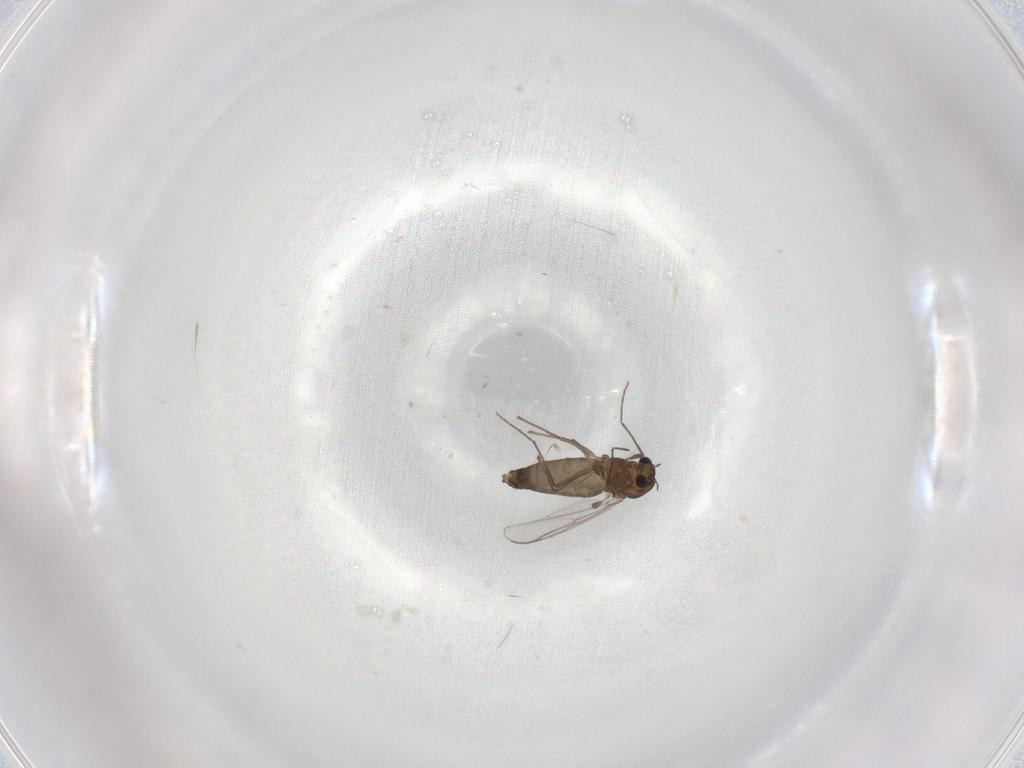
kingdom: Animalia
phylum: Arthropoda
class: Insecta
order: Diptera
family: Chironomidae
